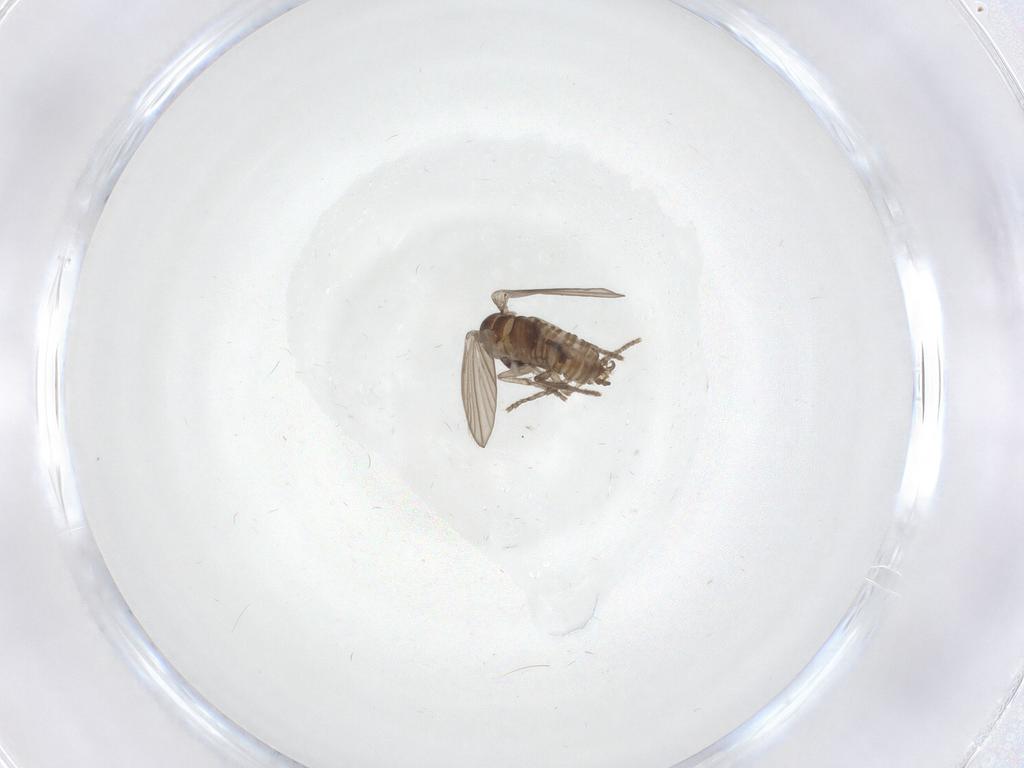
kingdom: Animalia
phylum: Arthropoda
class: Insecta
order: Diptera
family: Psychodidae
